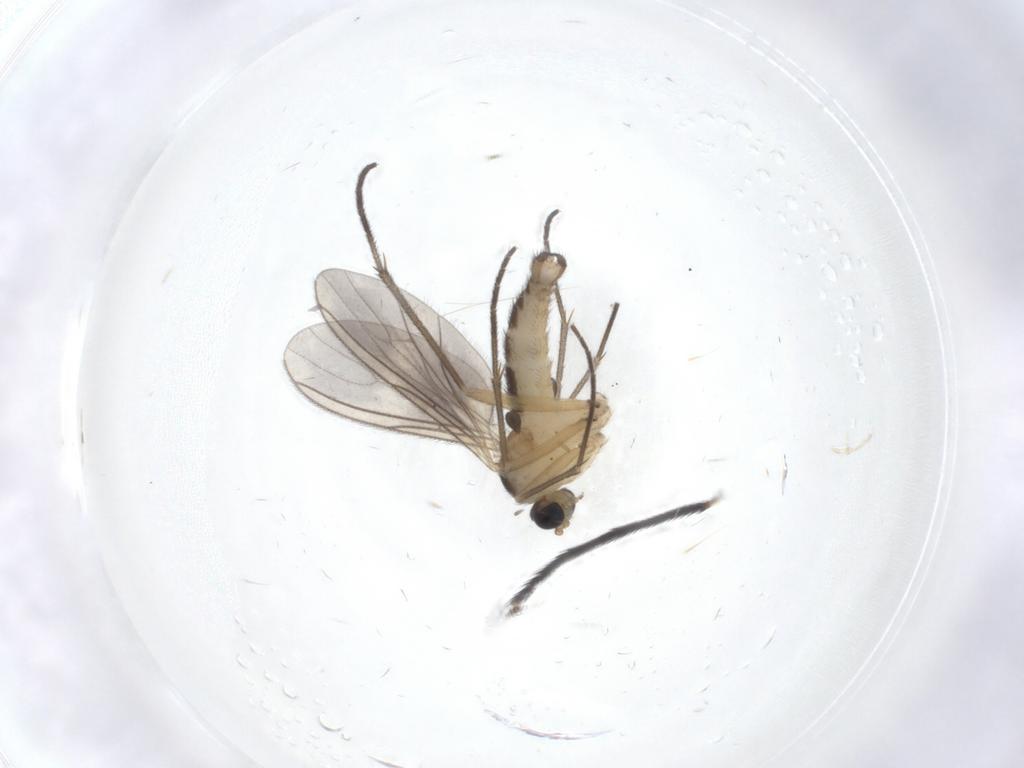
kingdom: Animalia
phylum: Arthropoda
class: Insecta
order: Diptera
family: Sciaridae
